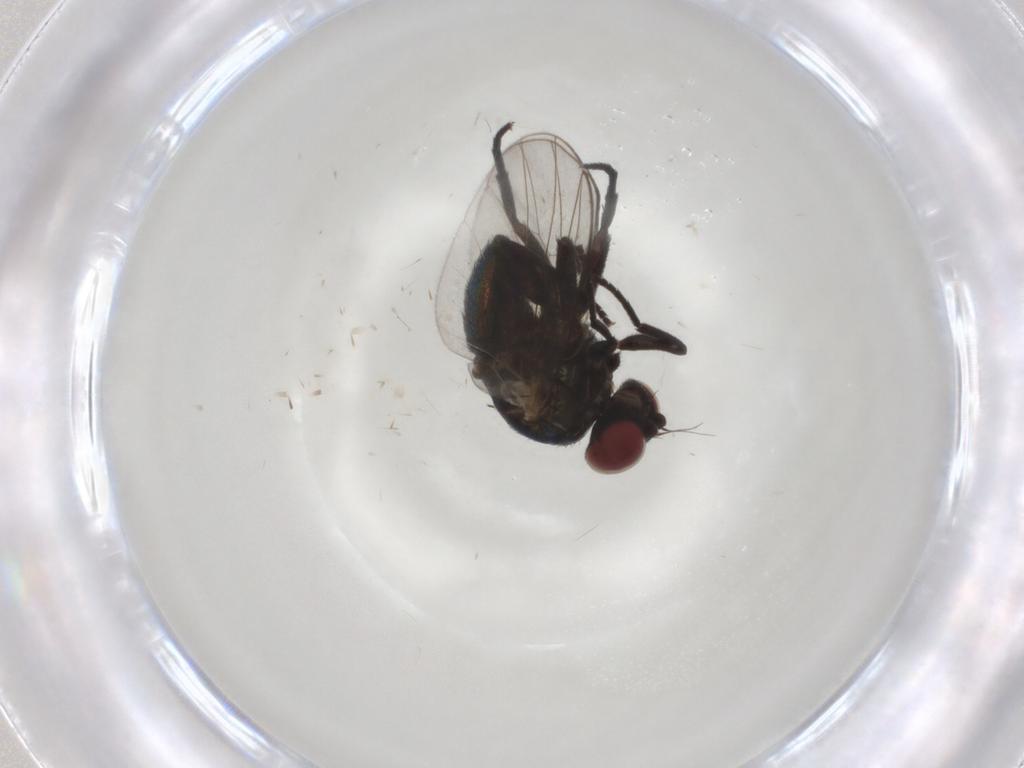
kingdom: Animalia
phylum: Arthropoda
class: Insecta
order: Diptera
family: Agromyzidae
